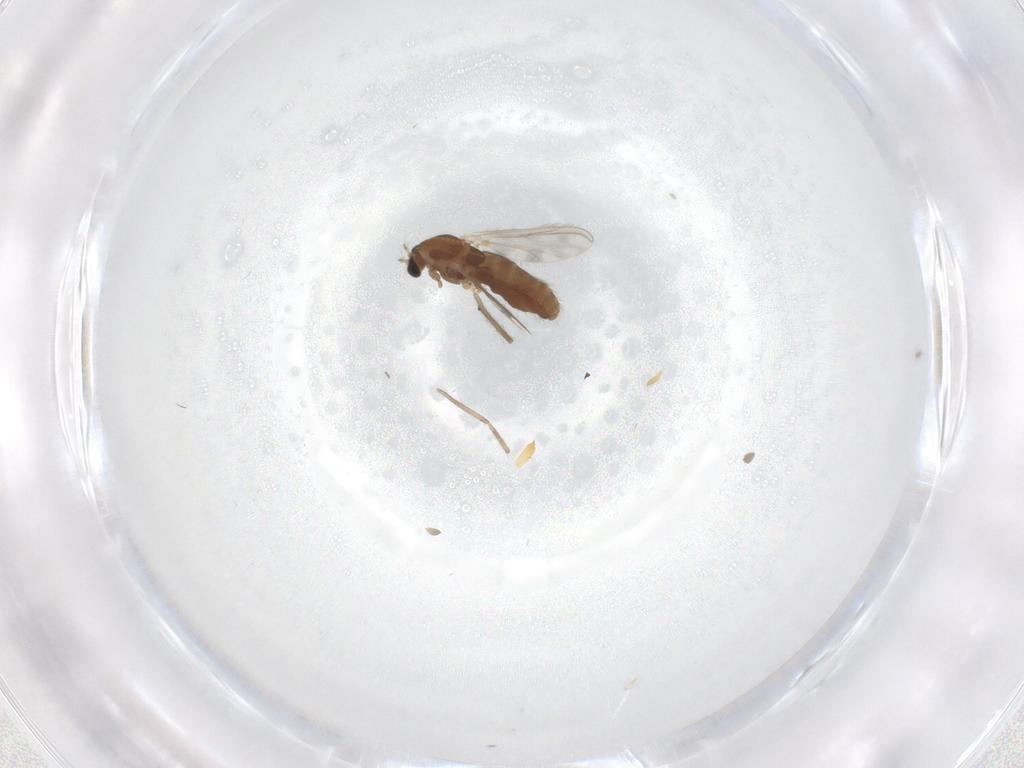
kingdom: Animalia
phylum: Arthropoda
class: Insecta
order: Diptera
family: Chironomidae
